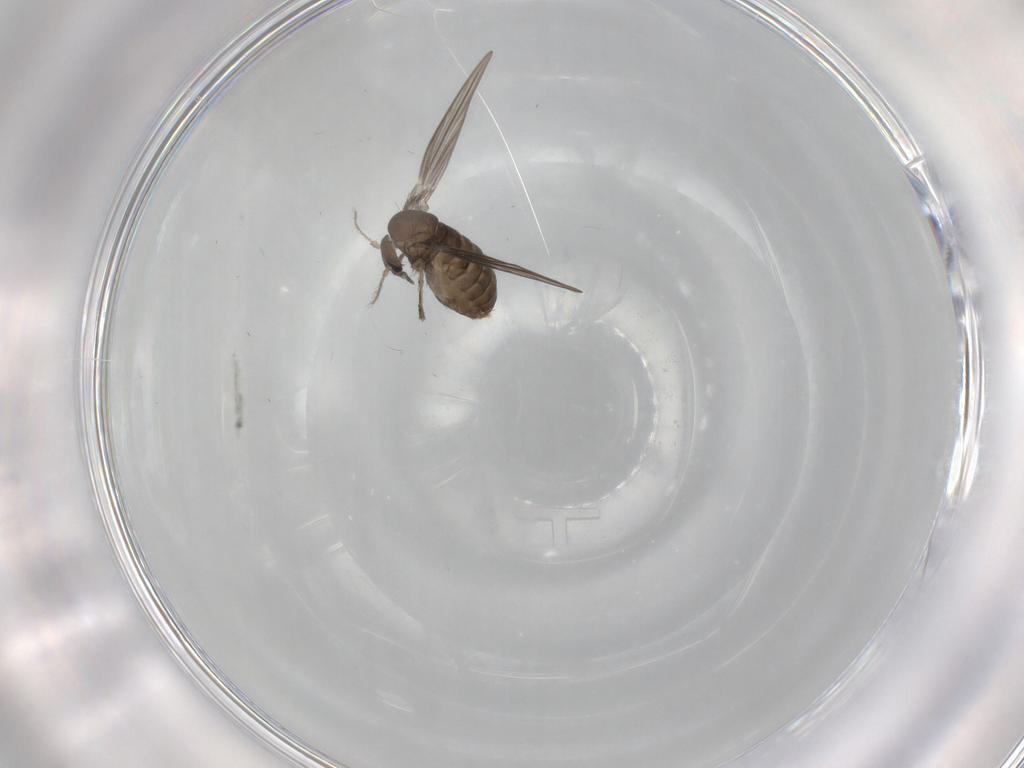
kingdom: Animalia
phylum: Arthropoda
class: Insecta
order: Diptera
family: Psychodidae
